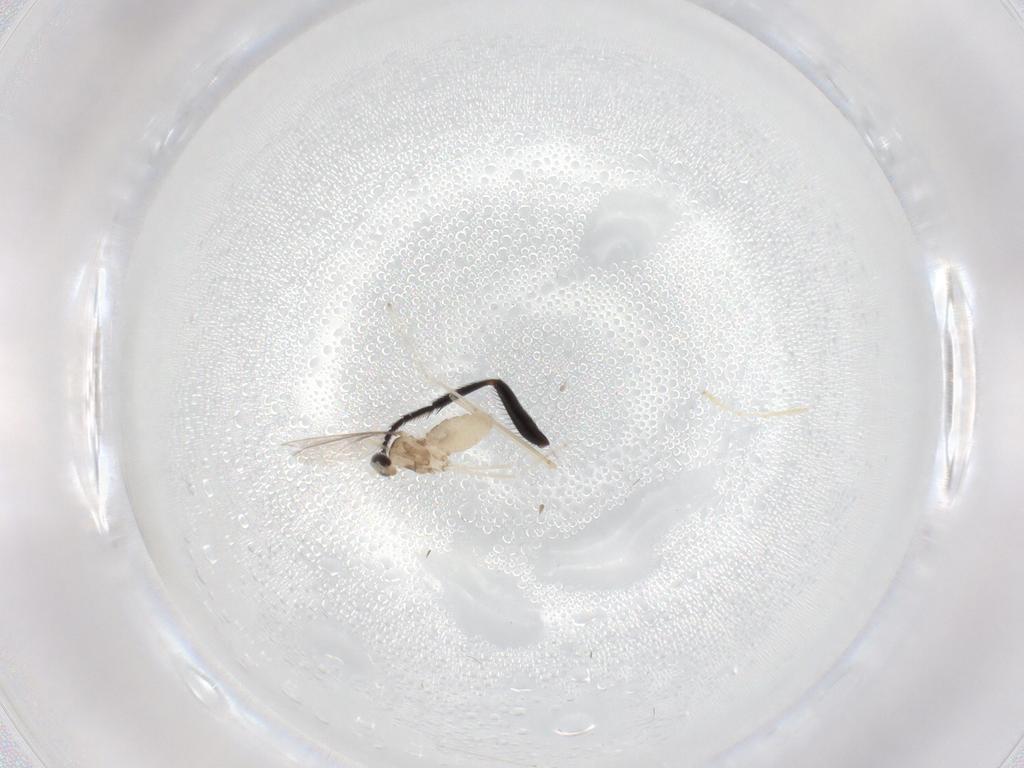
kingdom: Animalia
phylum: Arthropoda
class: Insecta
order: Diptera
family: Cecidomyiidae
